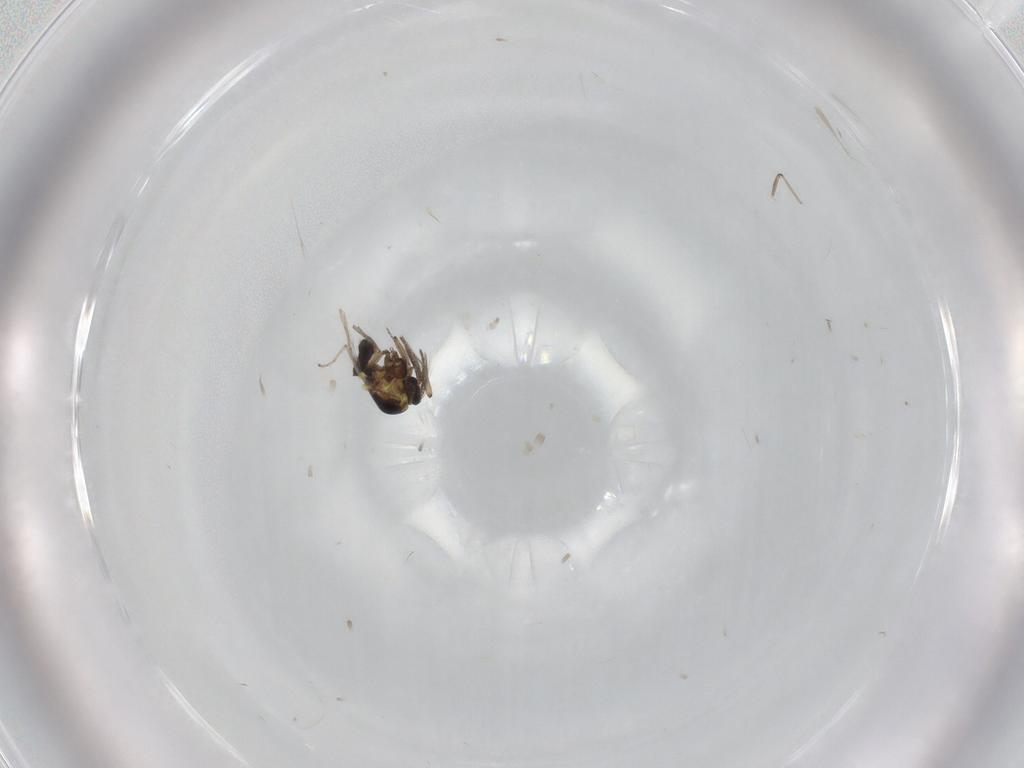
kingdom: Animalia
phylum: Arthropoda
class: Insecta
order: Diptera
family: Ceratopogonidae
